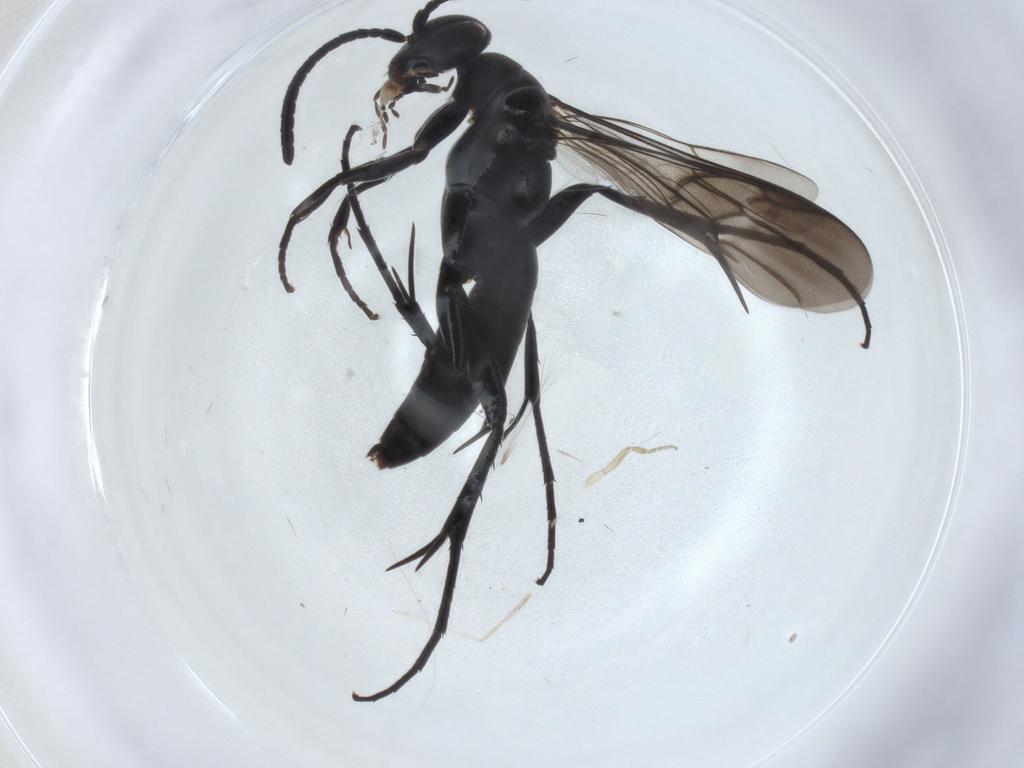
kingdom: Animalia
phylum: Arthropoda
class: Insecta
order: Hymenoptera
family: Pompilidae
